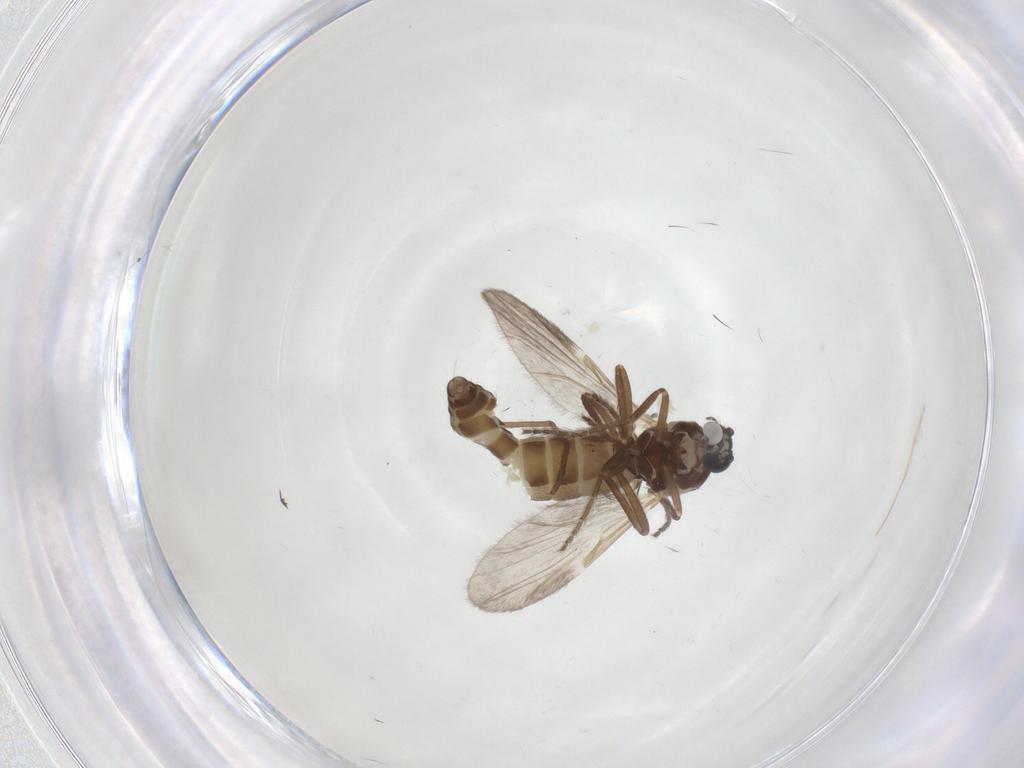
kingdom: Animalia
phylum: Arthropoda
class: Insecta
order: Diptera
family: Ceratopogonidae
